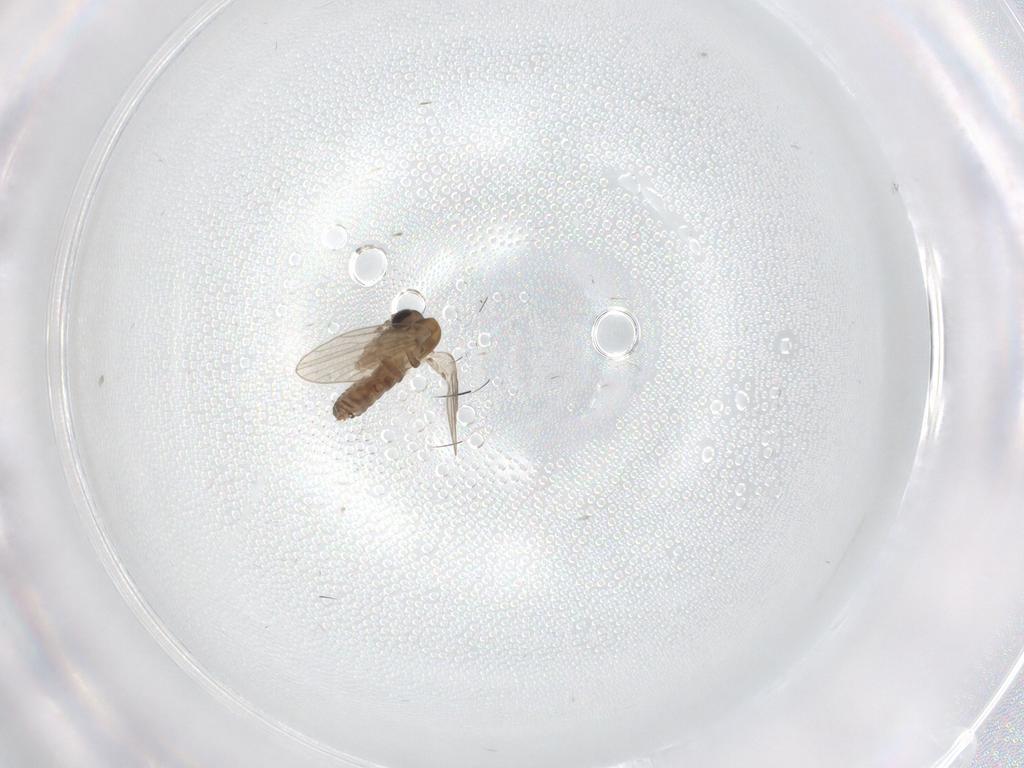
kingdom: Animalia
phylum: Arthropoda
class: Insecta
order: Diptera
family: Psychodidae
